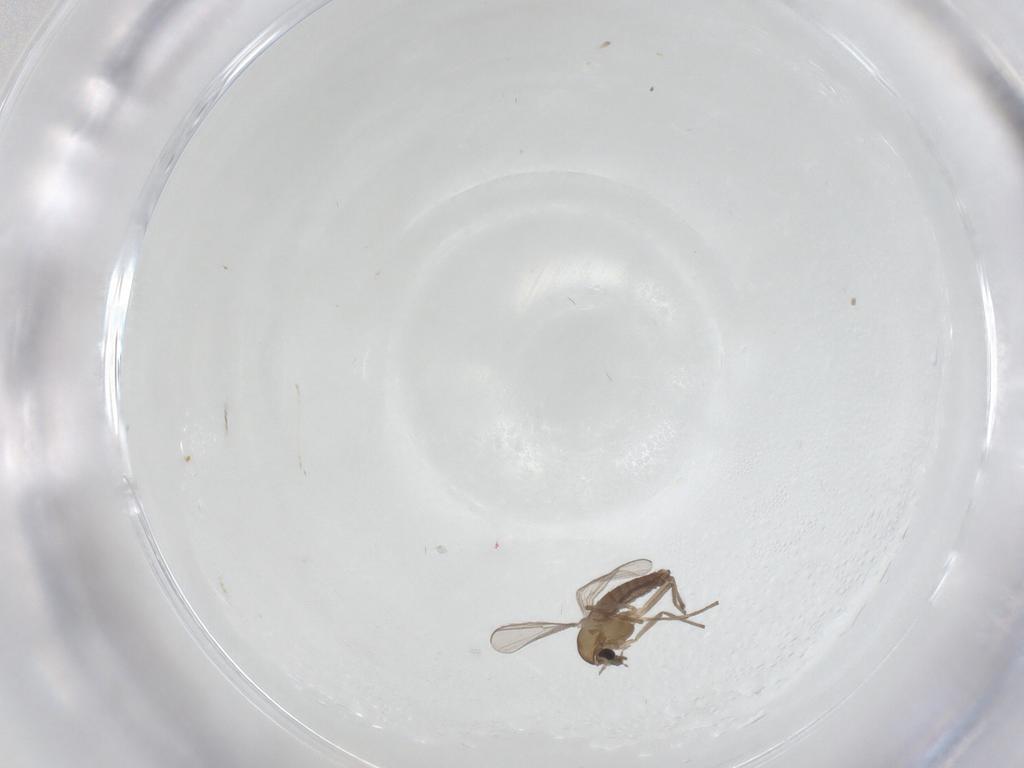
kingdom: Animalia
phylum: Arthropoda
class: Insecta
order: Diptera
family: Chironomidae
